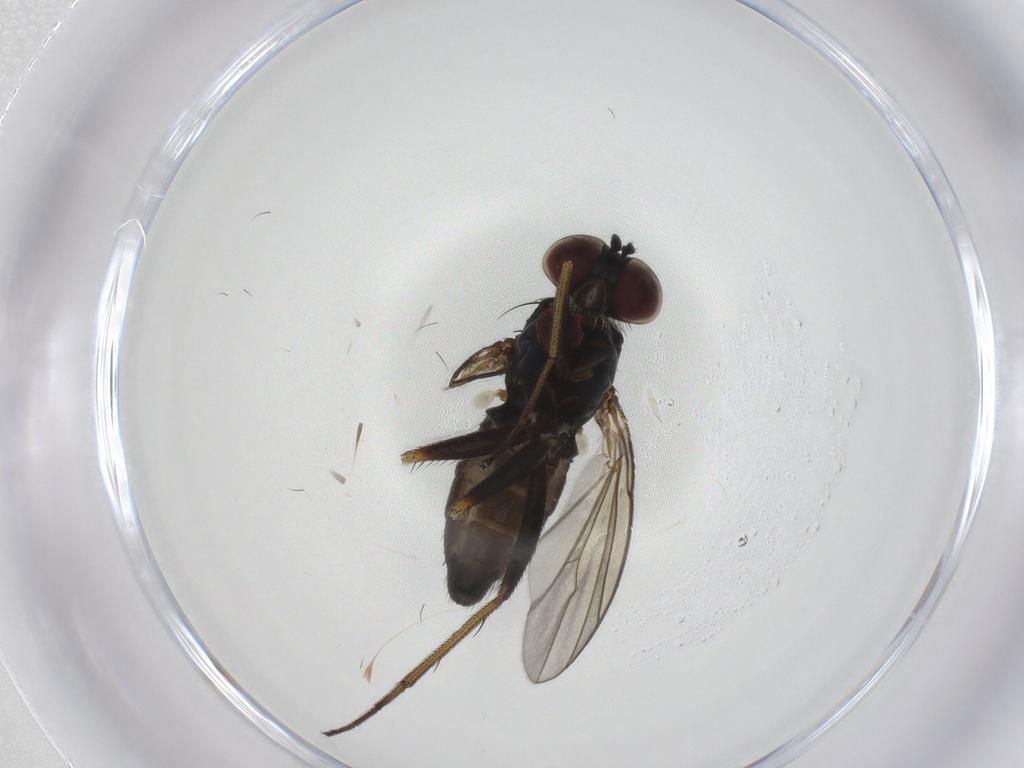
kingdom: Animalia
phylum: Arthropoda
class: Insecta
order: Diptera
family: Dolichopodidae
